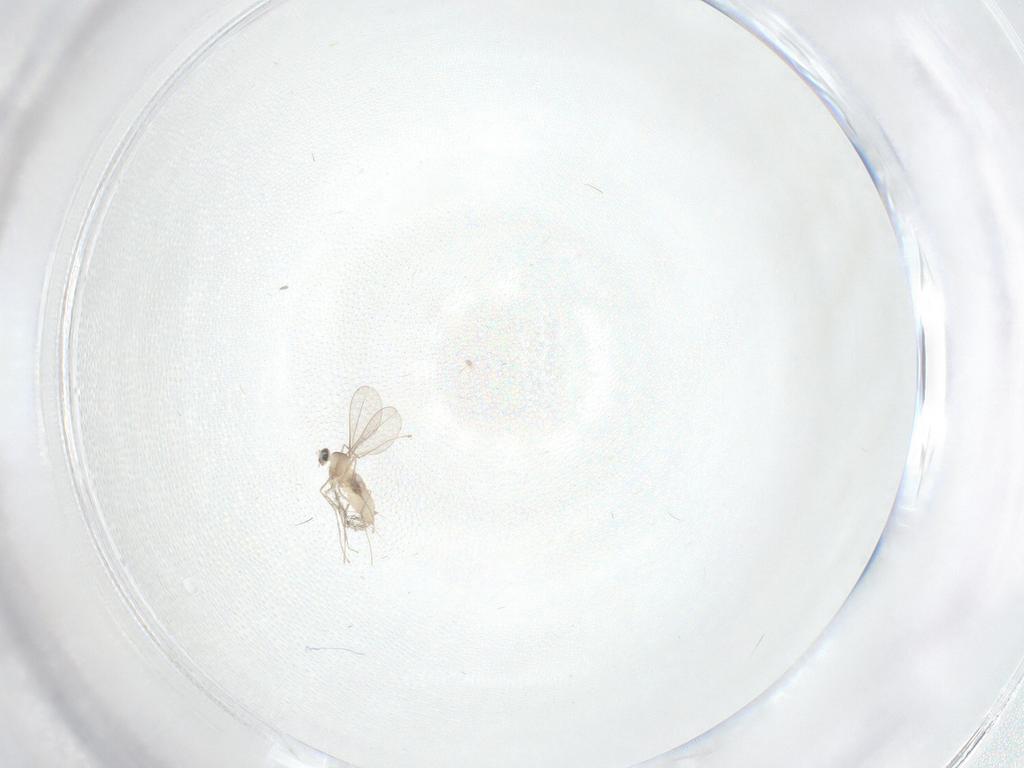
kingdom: Animalia
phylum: Arthropoda
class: Insecta
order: Diptera
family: Cecidomyiidae
